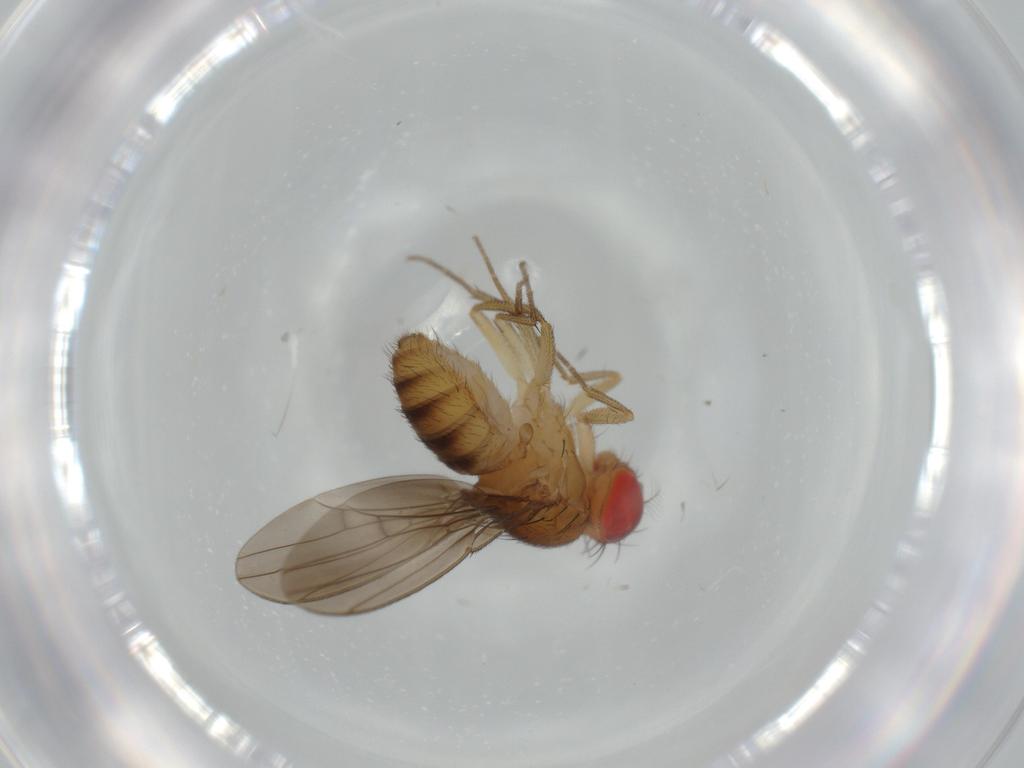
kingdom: Animalia
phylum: Arthropoda
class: Insecta
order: Diptera
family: Drosophilidae
